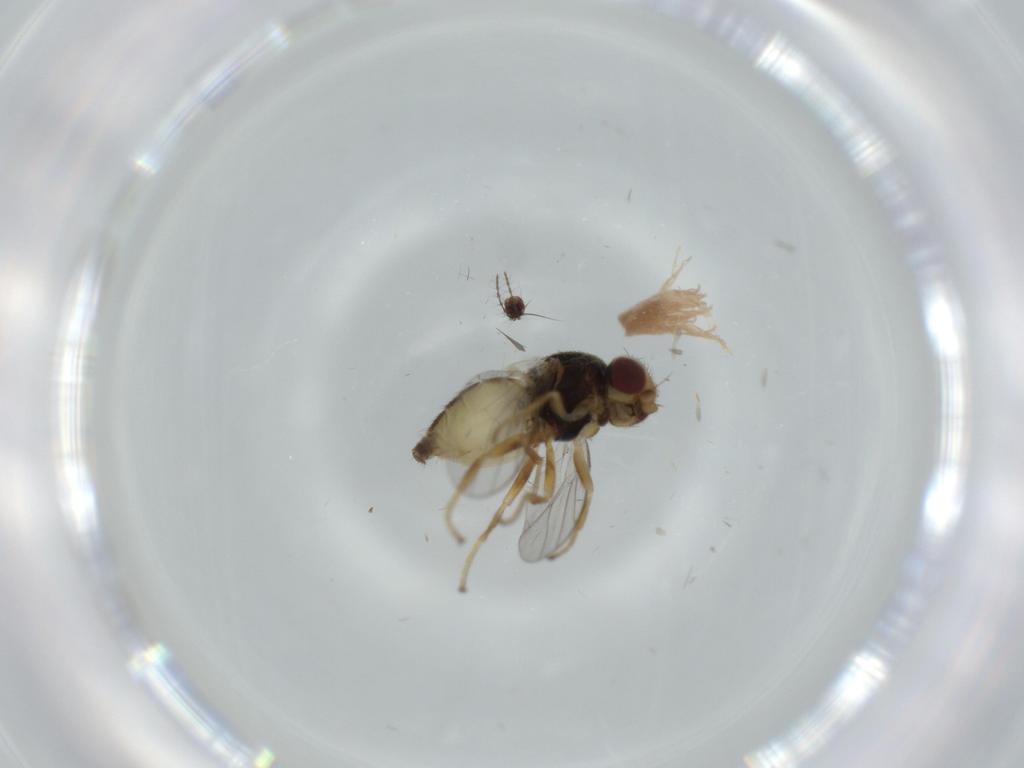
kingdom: Animalia
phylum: Arthropoda
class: Insecta
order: Diptera
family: Chloropidae
